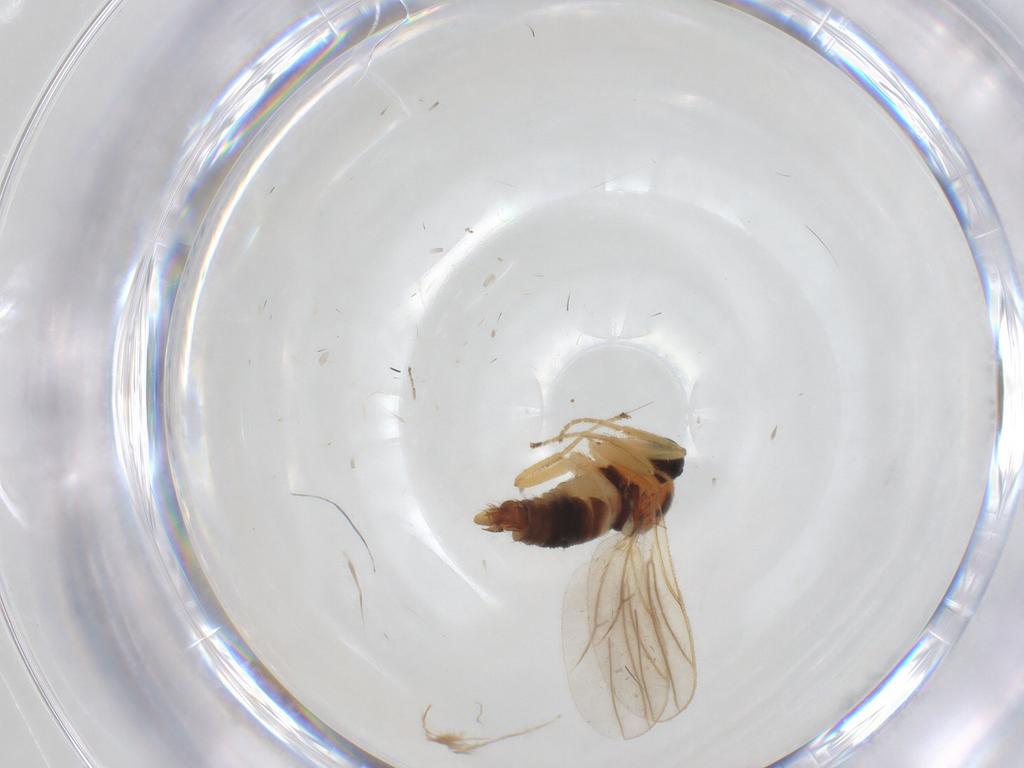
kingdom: Animalia
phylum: Arthropoda
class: Insecta
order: Diptera
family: Hybotidae
